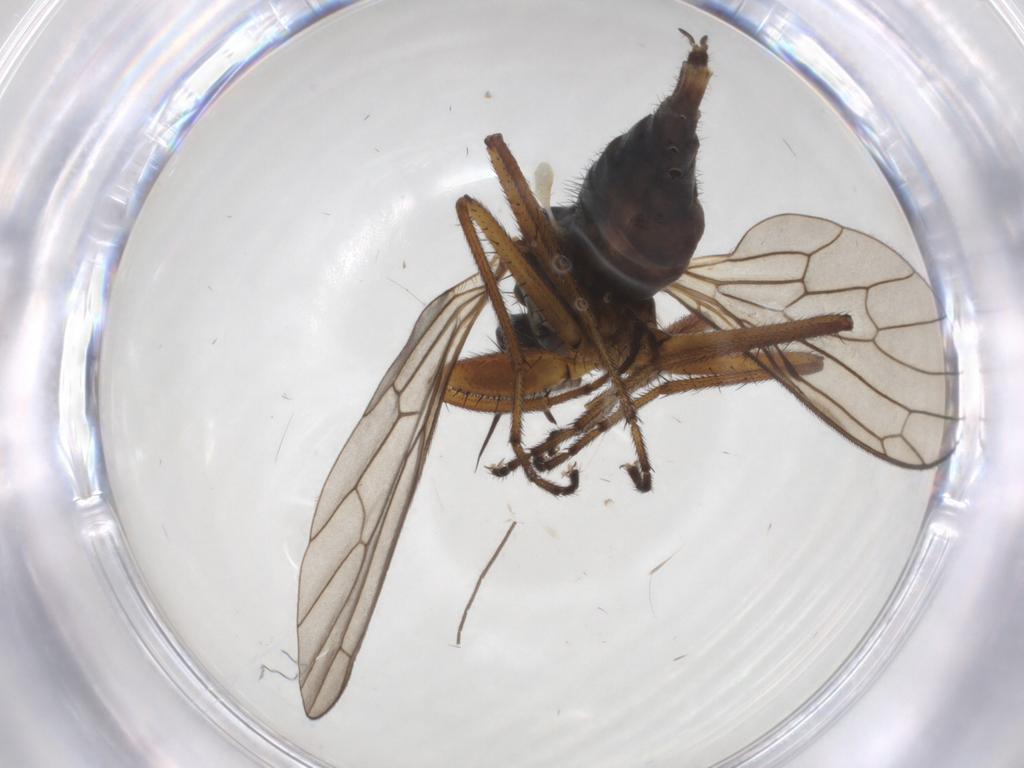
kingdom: Animalia
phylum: Arthropoda
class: Insecta
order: Diptera
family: Empididae
